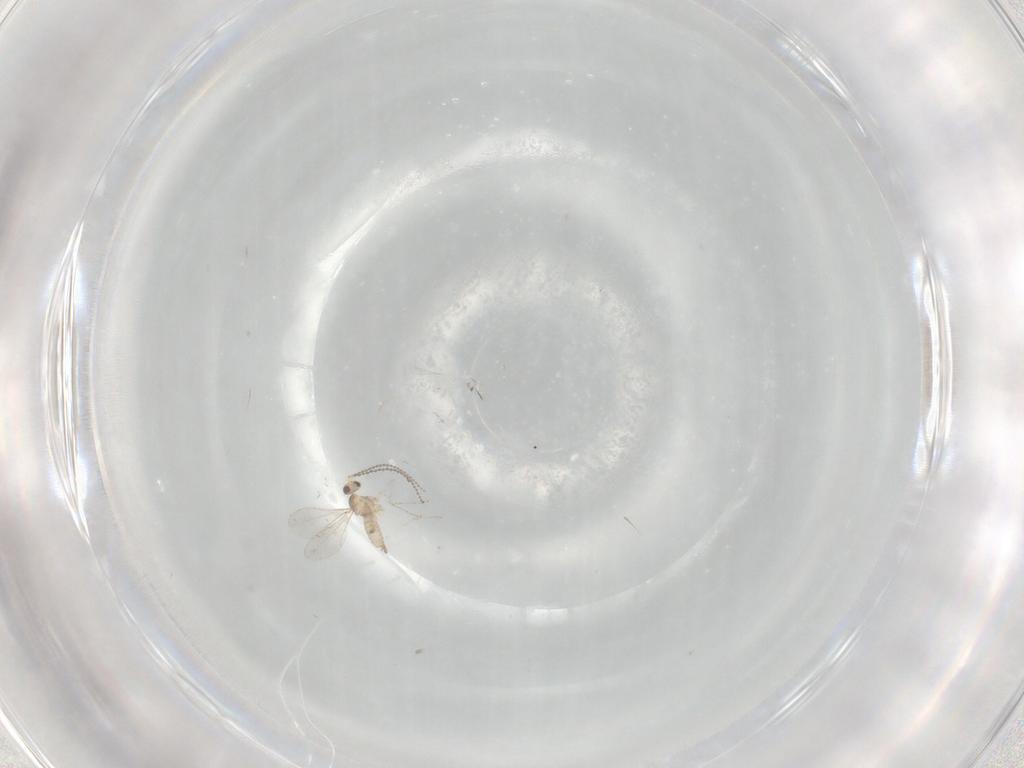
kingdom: Animalia
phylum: Arthropoda
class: Insecta
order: Diptera
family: Cecidomyiidae
